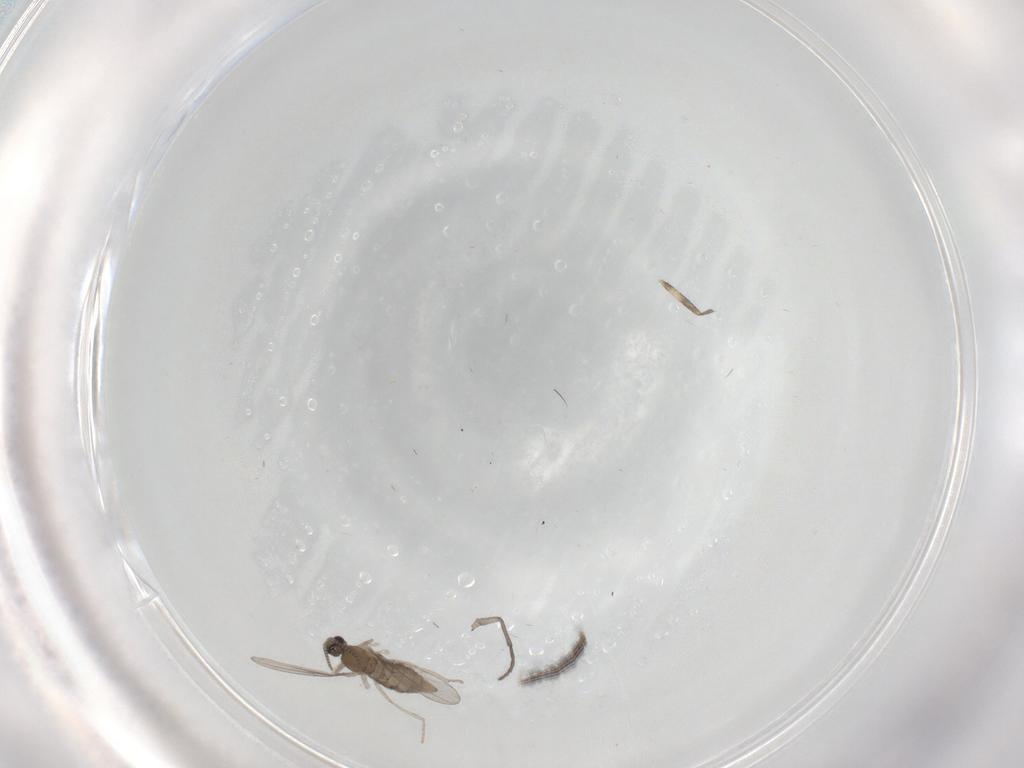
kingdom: Animalia
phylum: Arthropoda
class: Insecta
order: Diptera
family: Cecidomyiidae
